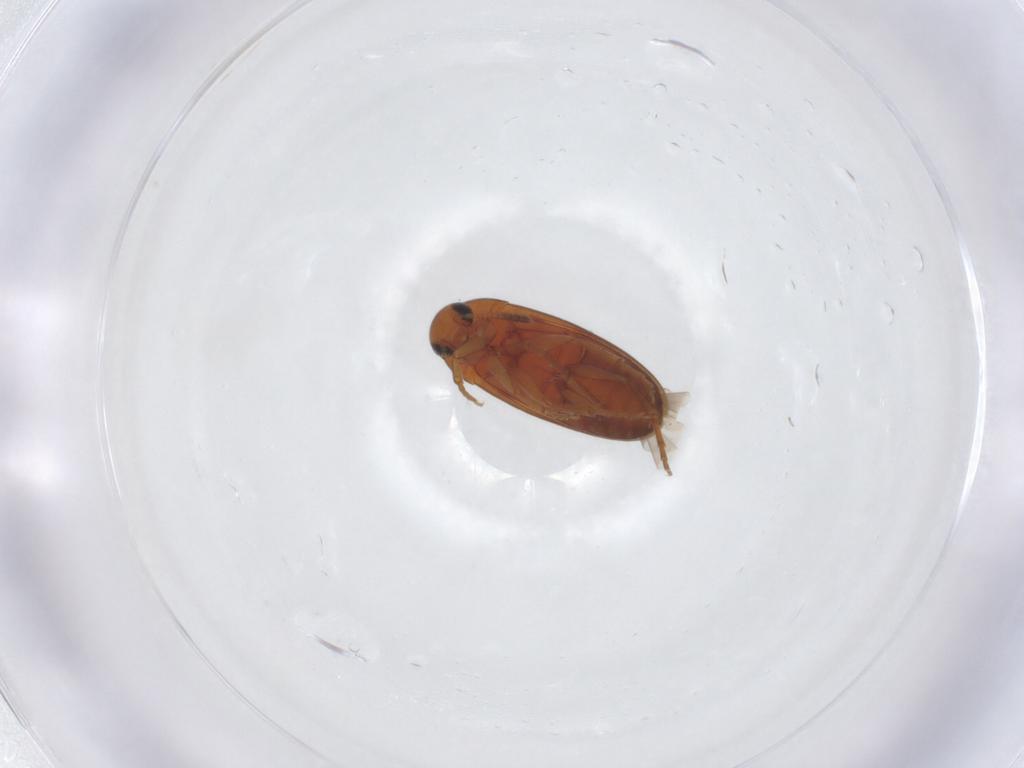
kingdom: Animalia
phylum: Arthropoda
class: Insecta
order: Coleoptera
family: Scraptiidae
